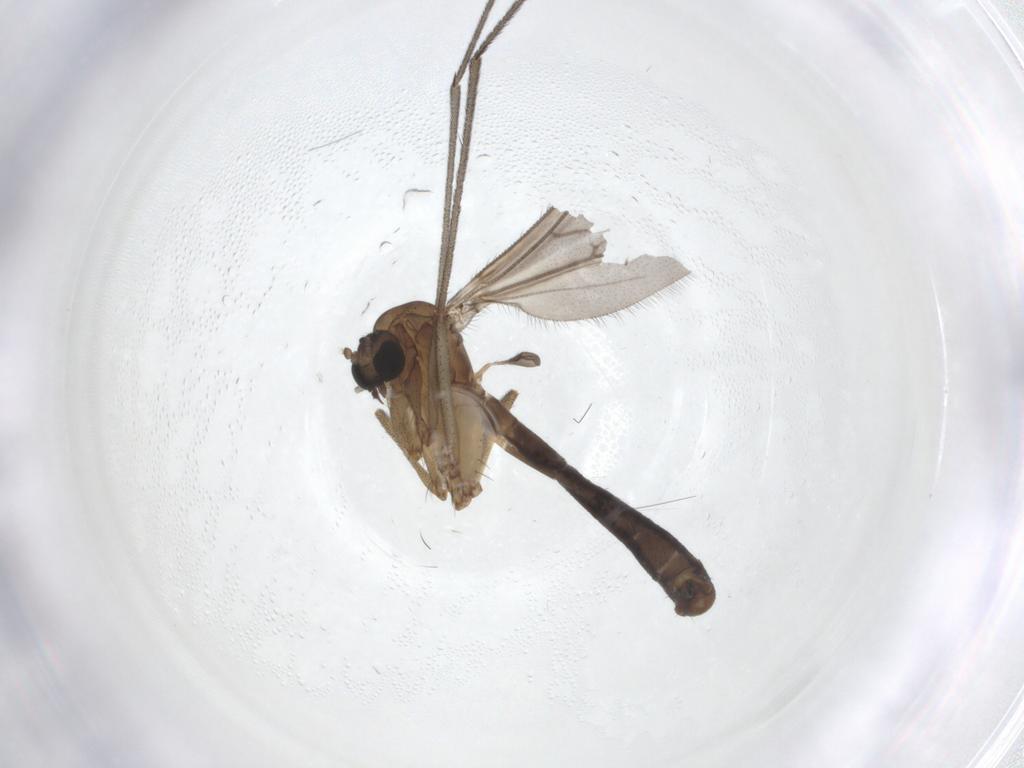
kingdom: Animalia
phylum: Arthropoda
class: Insecta
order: Diptera
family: Ditomyiidae
